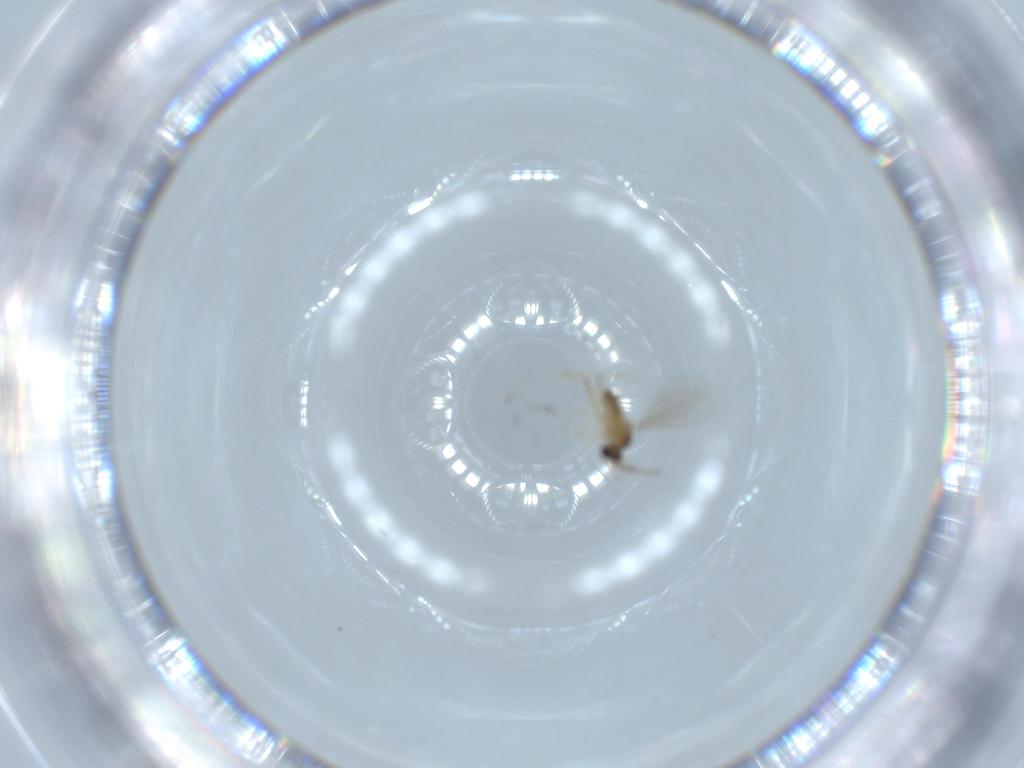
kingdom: Animalia
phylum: Arthropoda
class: Insecta
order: Diptera
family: Cecidomyiidae
